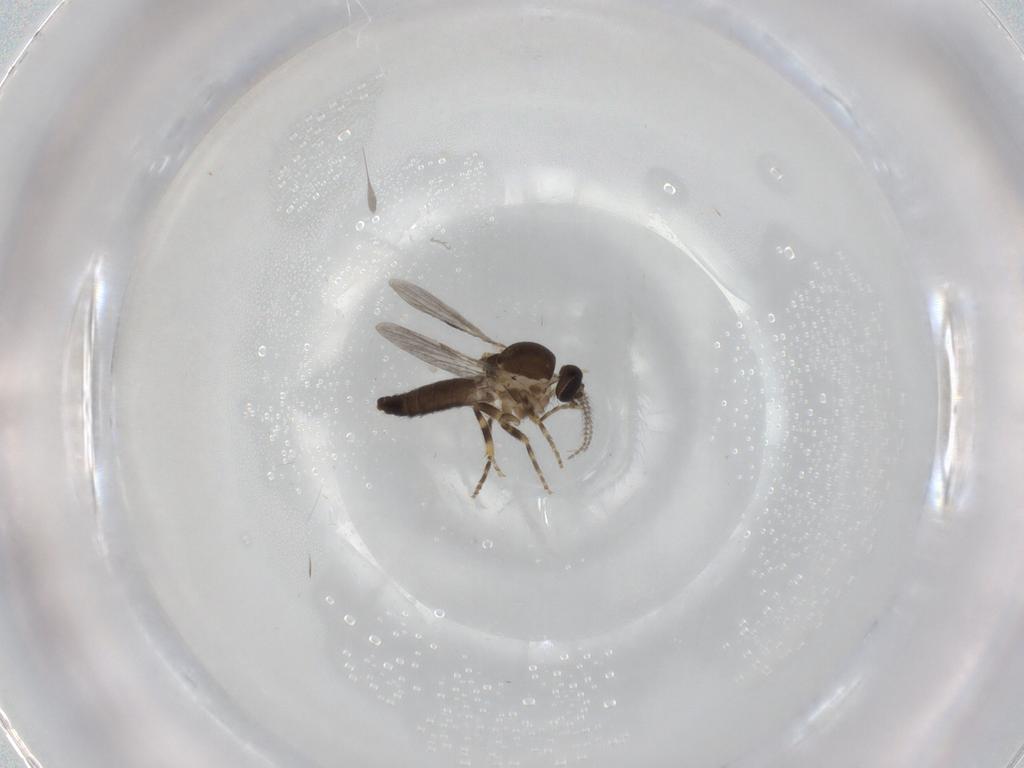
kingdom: Animalia
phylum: Arthropoda
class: Insecta
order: Diptera
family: Ceratopogonidae
